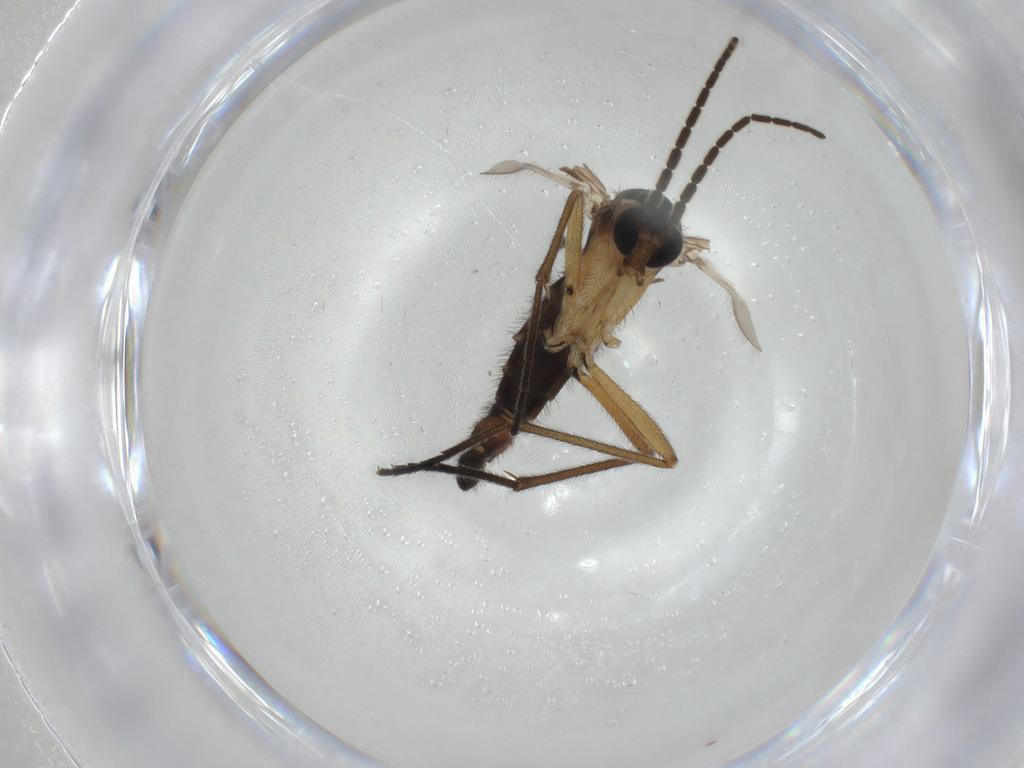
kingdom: Animalia
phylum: Arthropoda
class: Insecta
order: Diptera
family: Sciaridae
